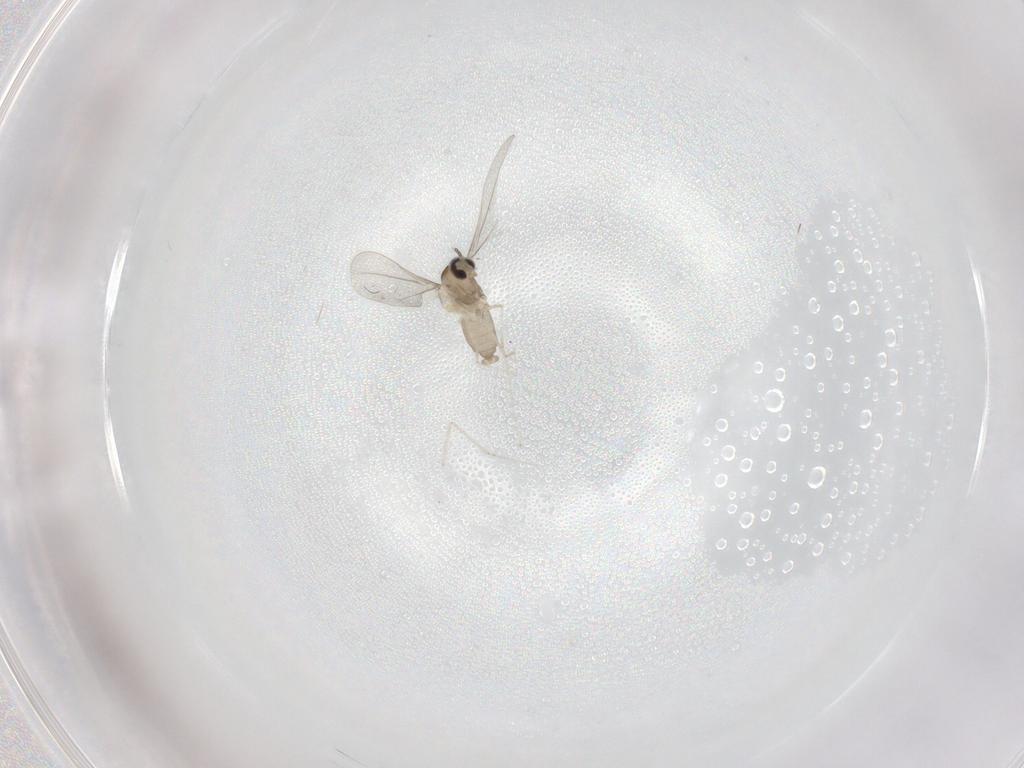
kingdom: Animalia
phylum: Arthropoda
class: Insecta
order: Diptera
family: Cecidomyiidae
